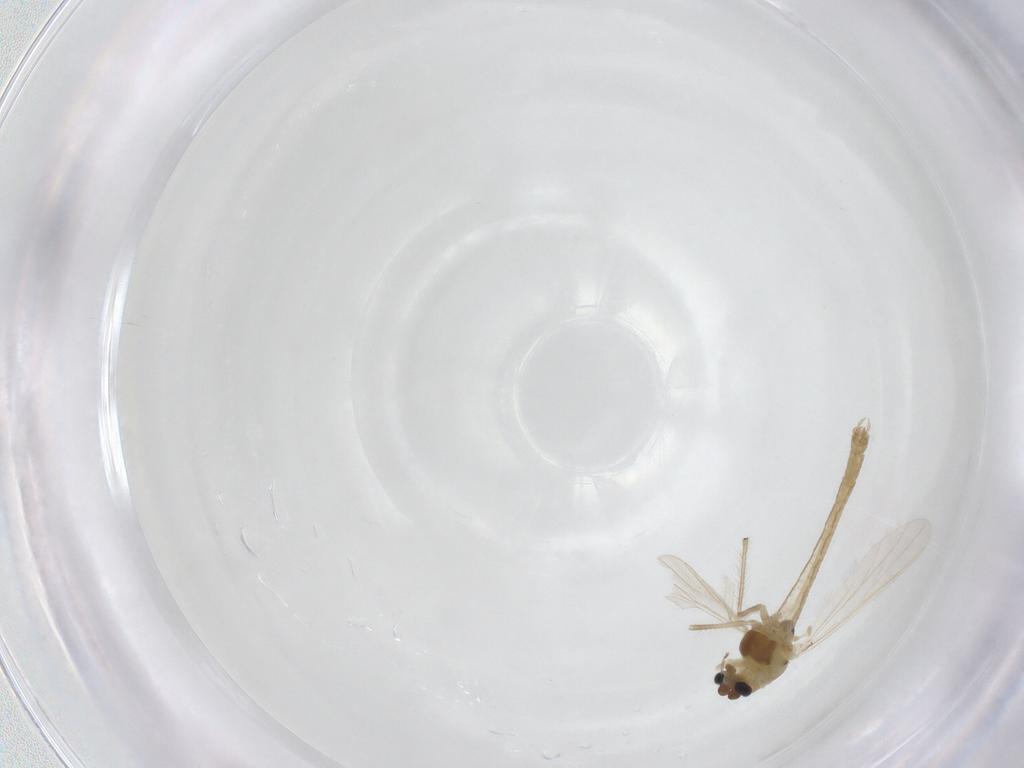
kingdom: Animalia
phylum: Arthropoda
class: Insecta
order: Diptera
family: Chironomidae
